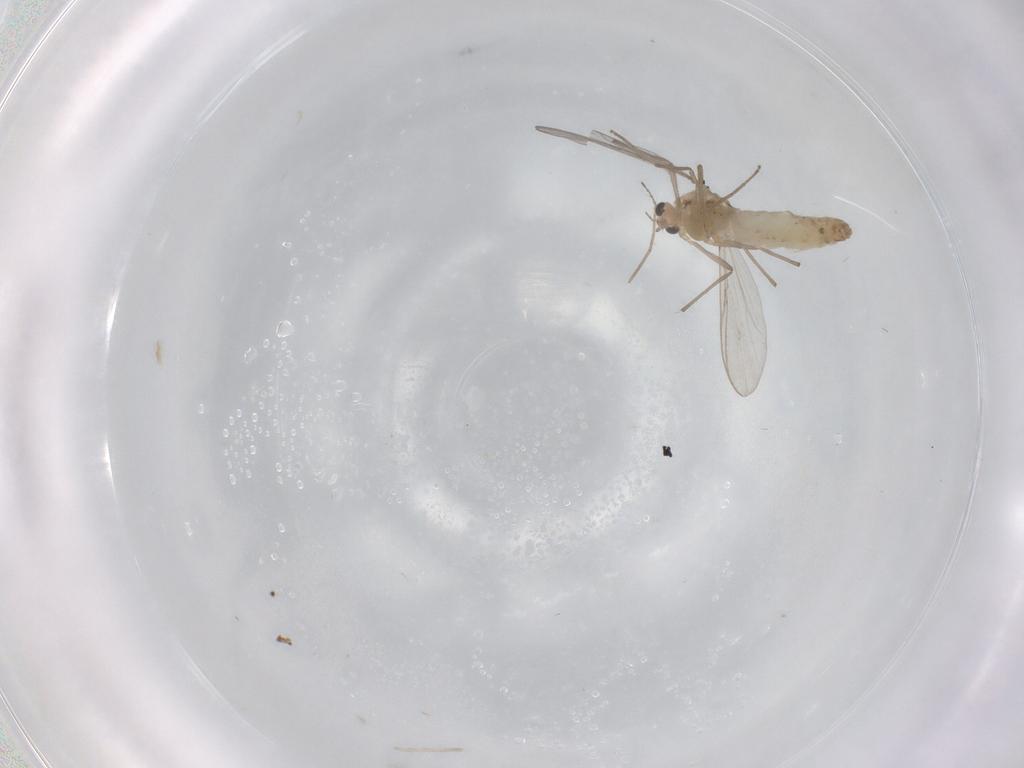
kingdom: Animalia
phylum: Arthropoda
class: Insecta
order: Diptera
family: Chironomidae
